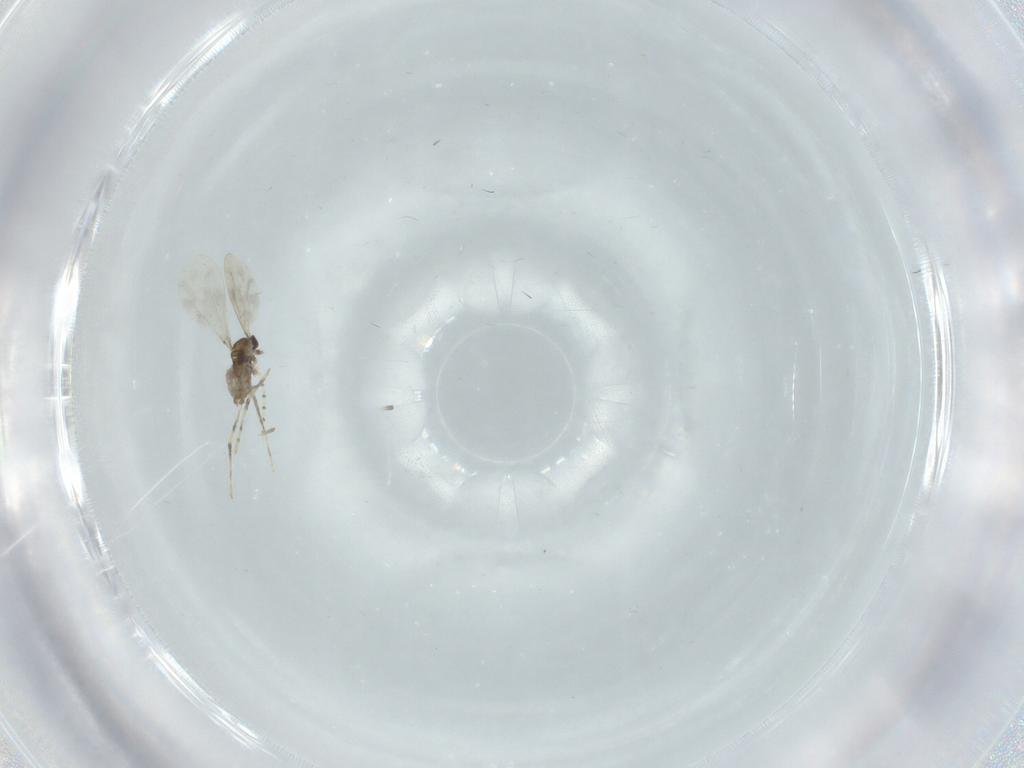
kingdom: Animalia
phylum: Arthropoda
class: Insecta
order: Diptera
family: Cecidomyiidae
